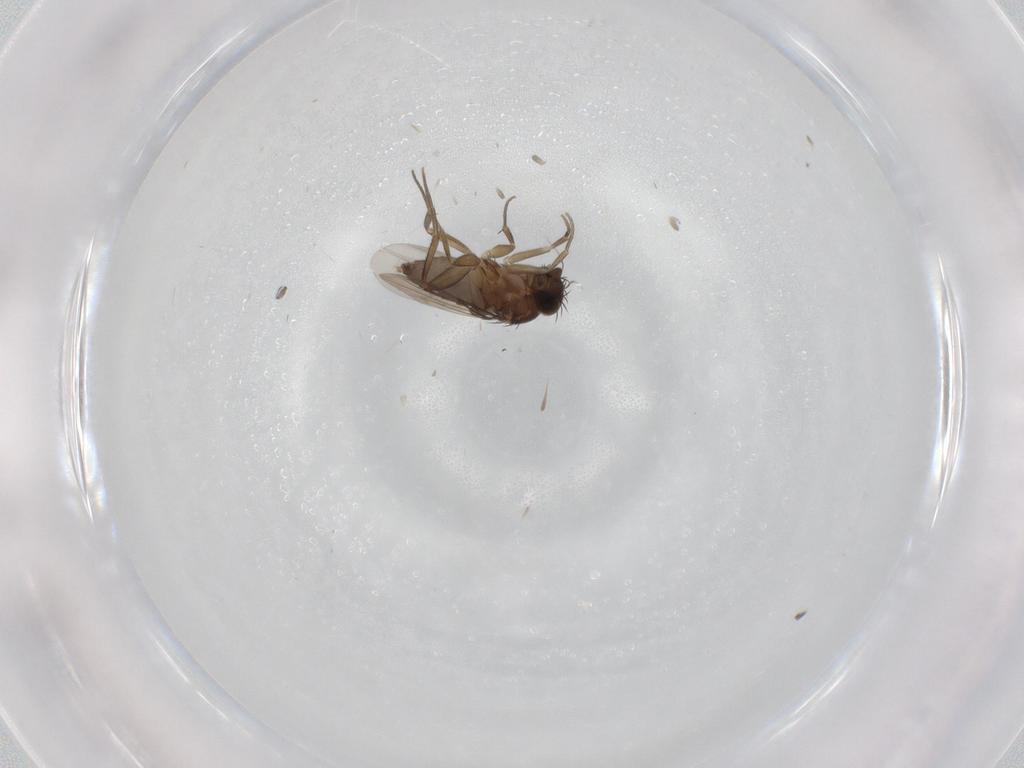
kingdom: Animalia
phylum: Arthropoda
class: Insecta
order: Diptera
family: Phoridae
